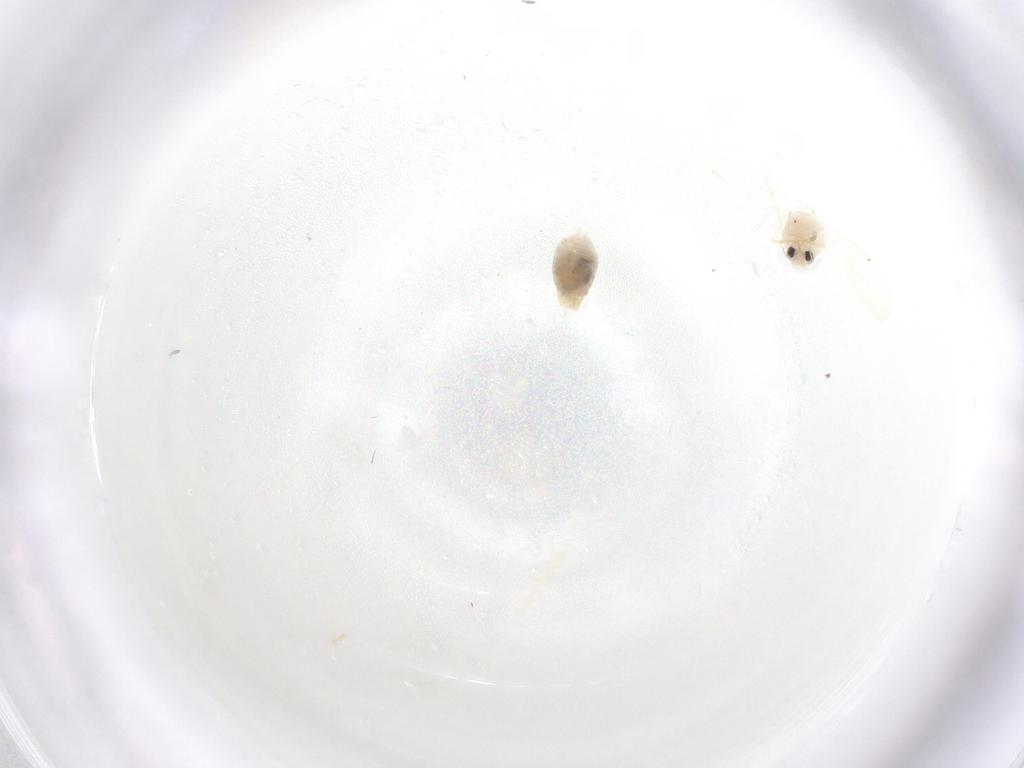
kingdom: Animalia
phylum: Arthropoda
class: Insecta
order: Hemiptera
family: Aleyrodidae
